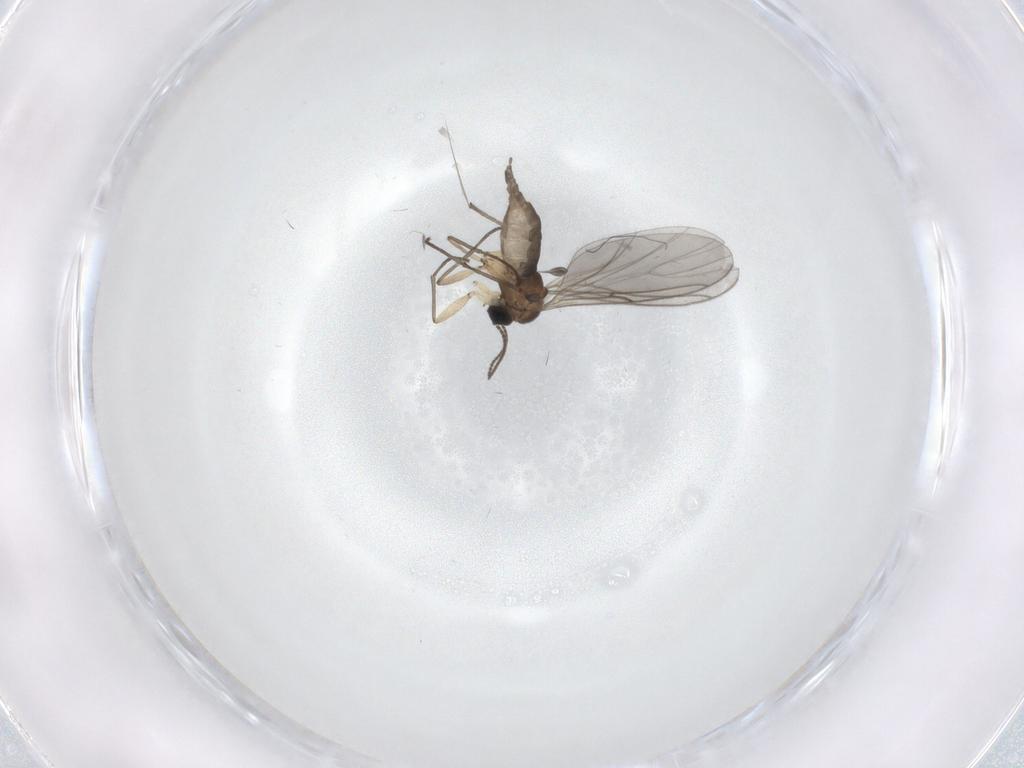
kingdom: Animalia
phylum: Arthropoda
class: Insecta
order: Diptera
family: Sciaridae
